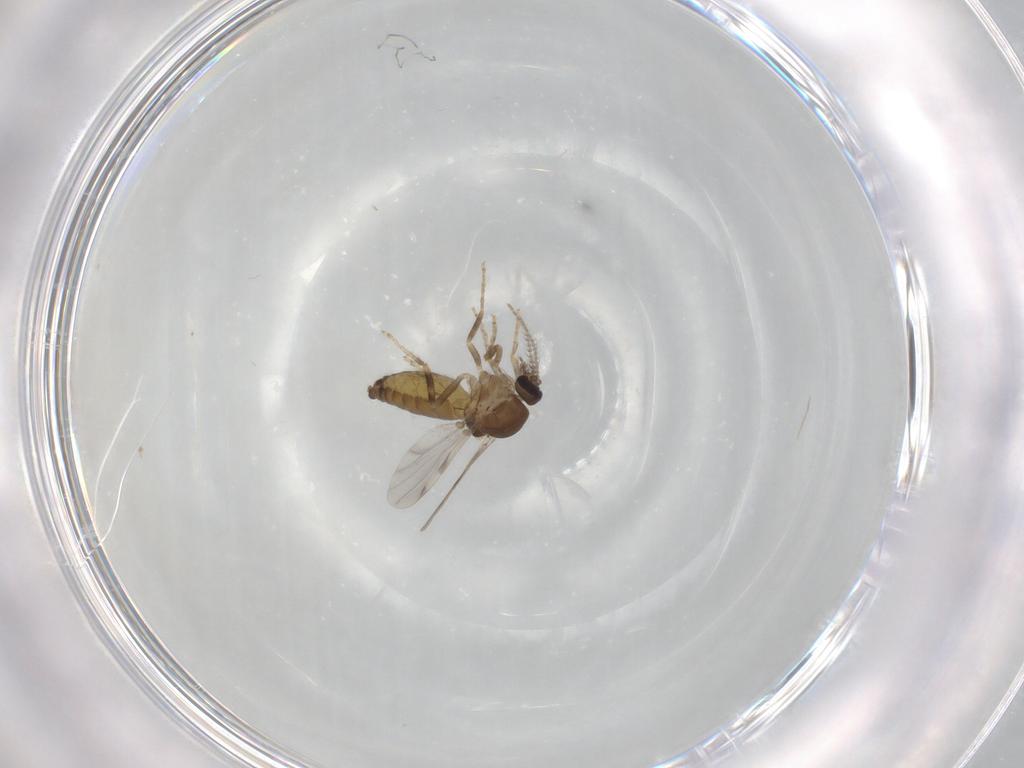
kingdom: Animalia
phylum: Arthropoda
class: Insecta
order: Diptera
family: Ceratopogonidae
